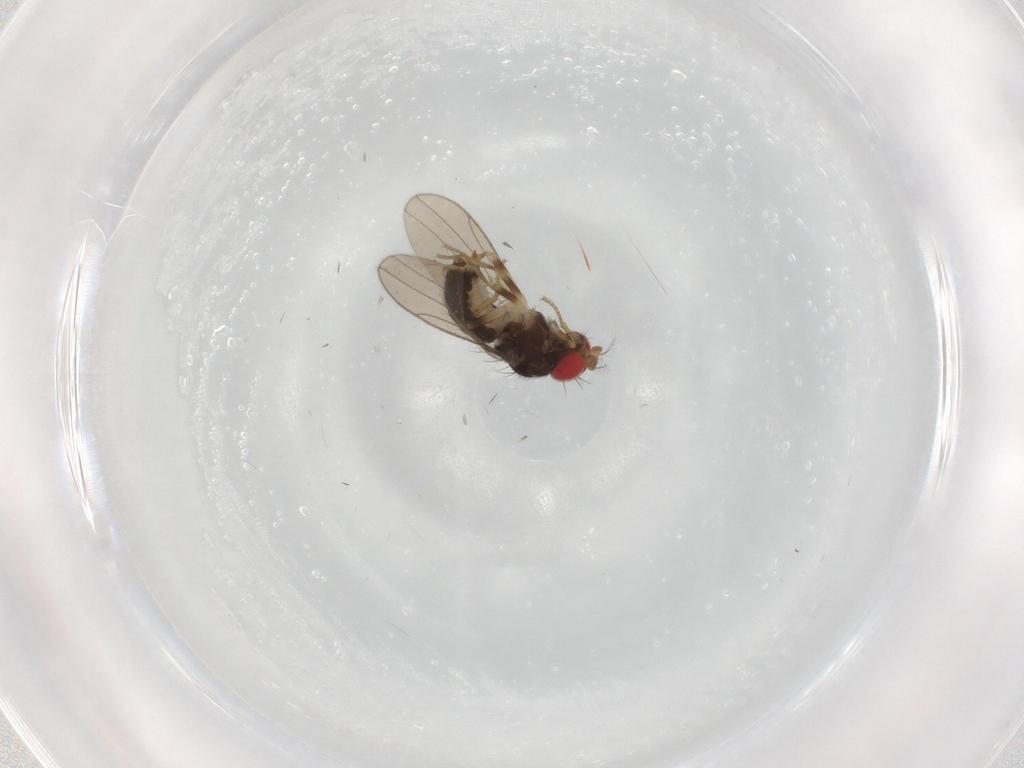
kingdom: Animalia
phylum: Arthropoda
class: Insecta
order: Diptera
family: Drosophilidae
